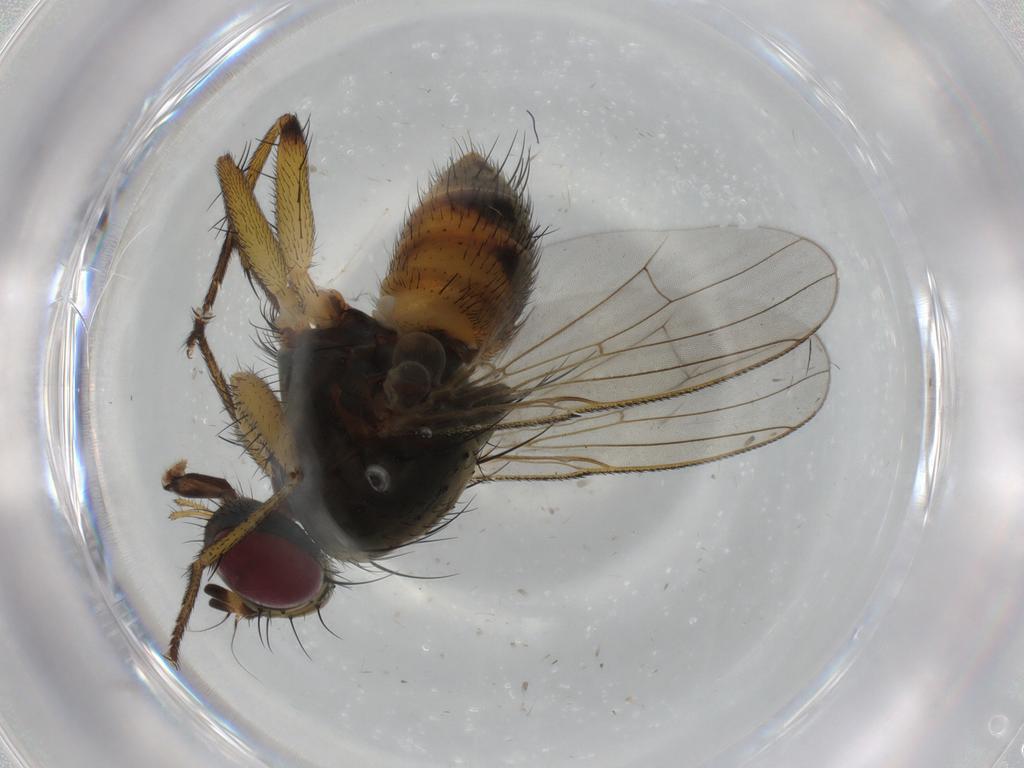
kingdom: Animalia
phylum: Arthropoda
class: Insecta
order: Diptera
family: Muscidae
